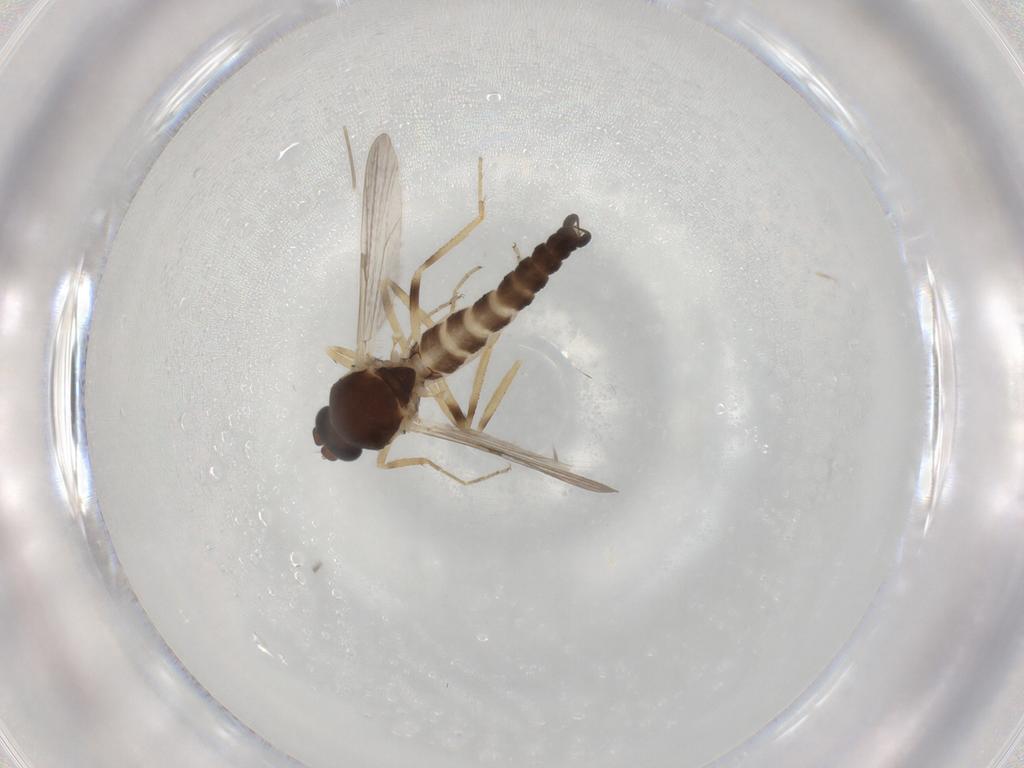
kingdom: Animalia
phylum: Arthropoda
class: Insecta
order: Diptera
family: Ceratopogonidae
